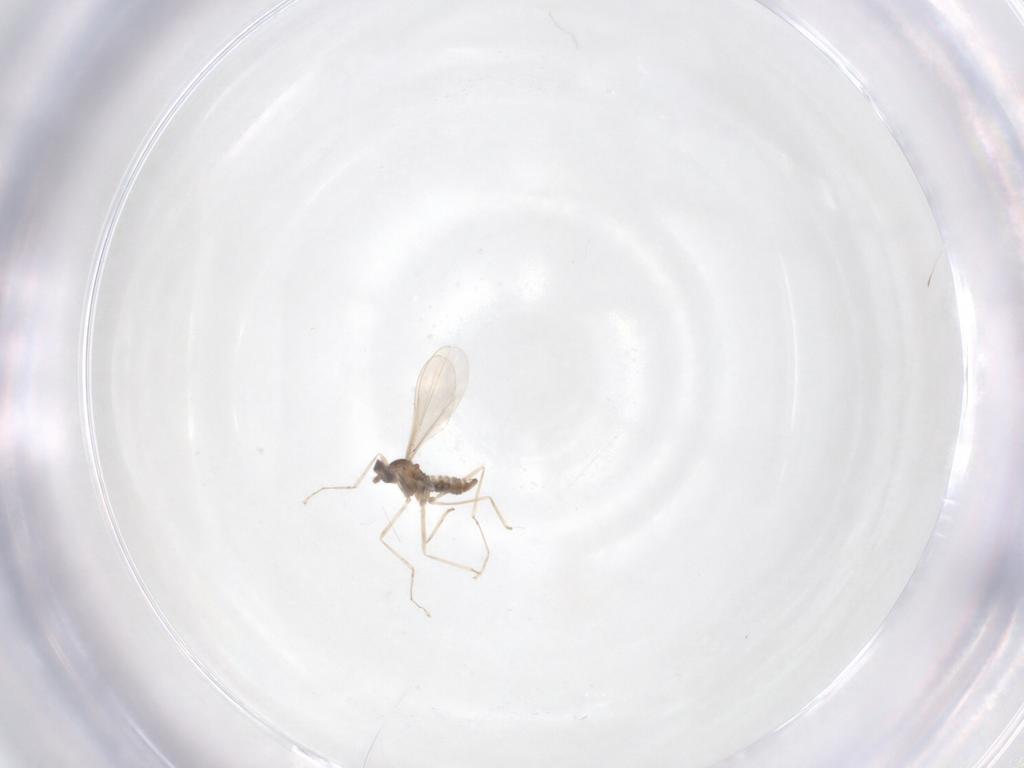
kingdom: Animalia
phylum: Arthropoda
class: Insecta
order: Diptera
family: Cecidomyiidae
